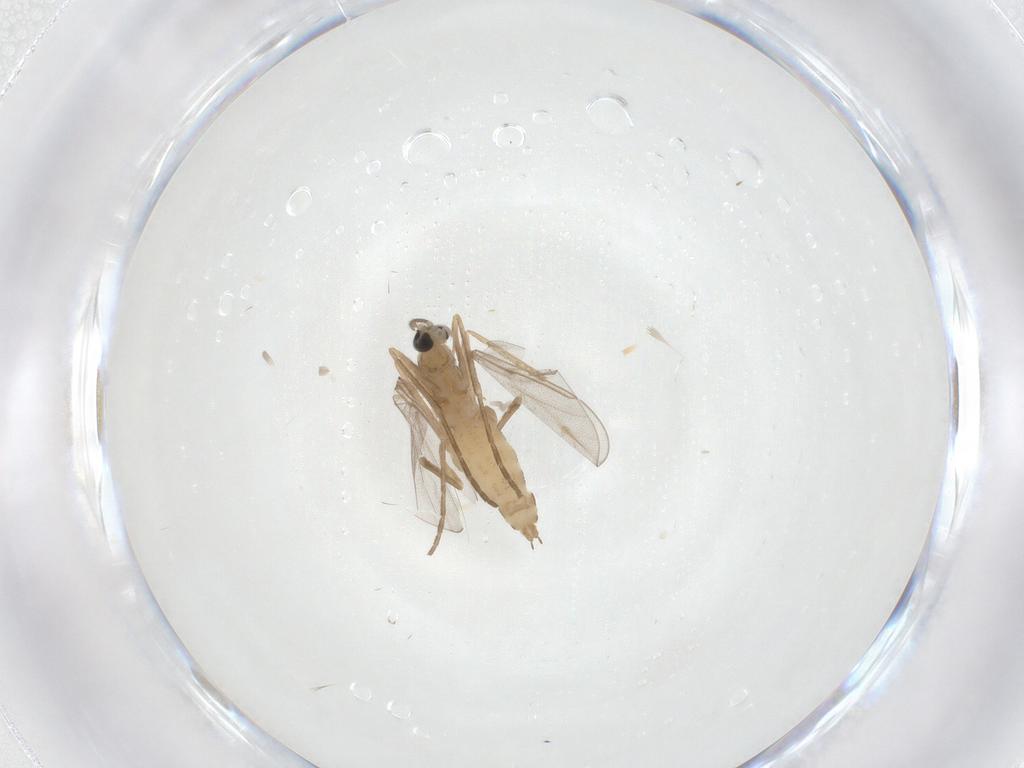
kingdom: Animalia
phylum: Arthropoda
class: Insecta
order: Diptera
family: Cecidomyiidae
